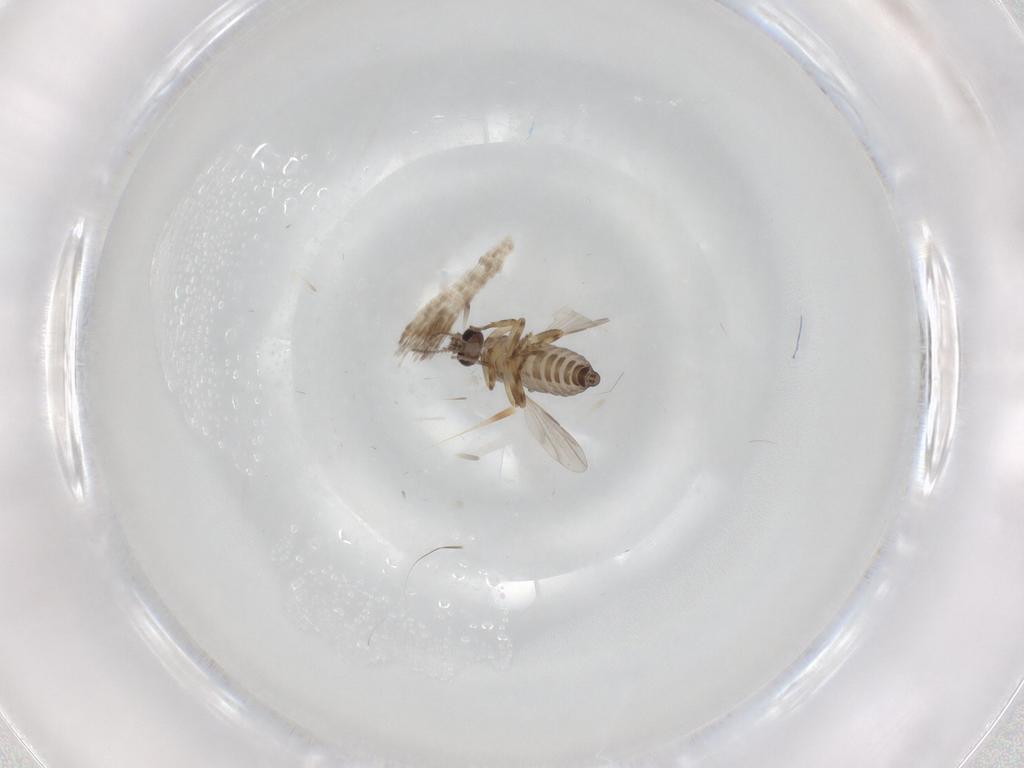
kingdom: Animalia
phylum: Arthropoda
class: Insecta
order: Diptera
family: Ceratopogonidae
